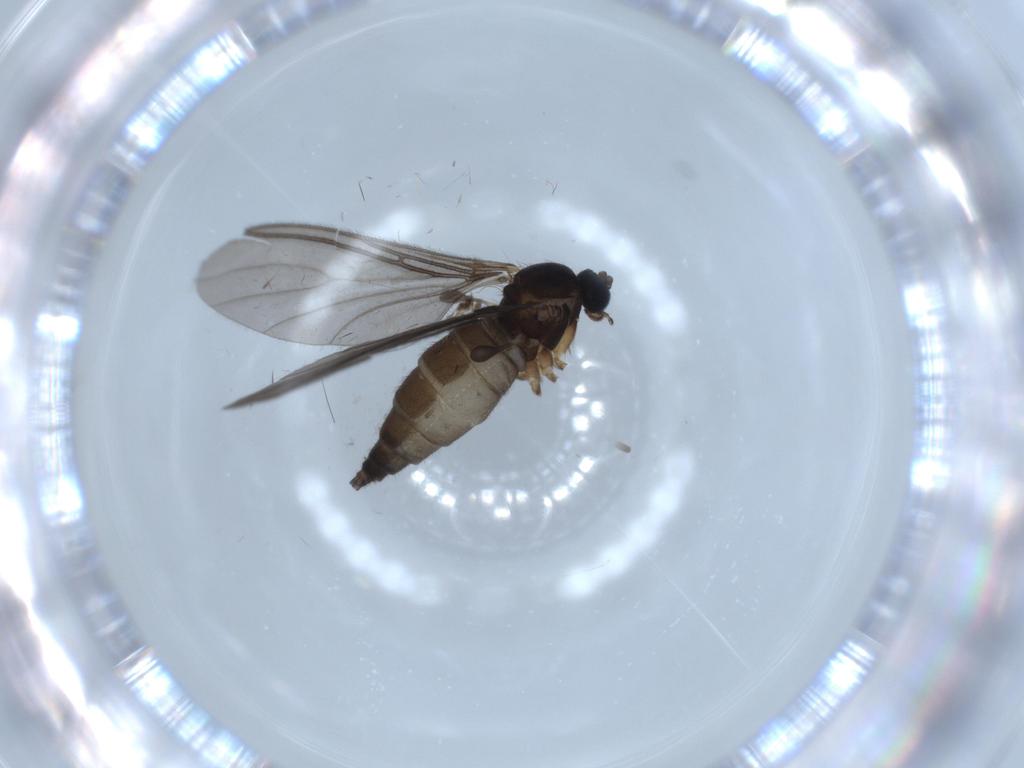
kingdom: Animalia
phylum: Arthropoda
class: Insecta
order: Diptera
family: Sciaridae
